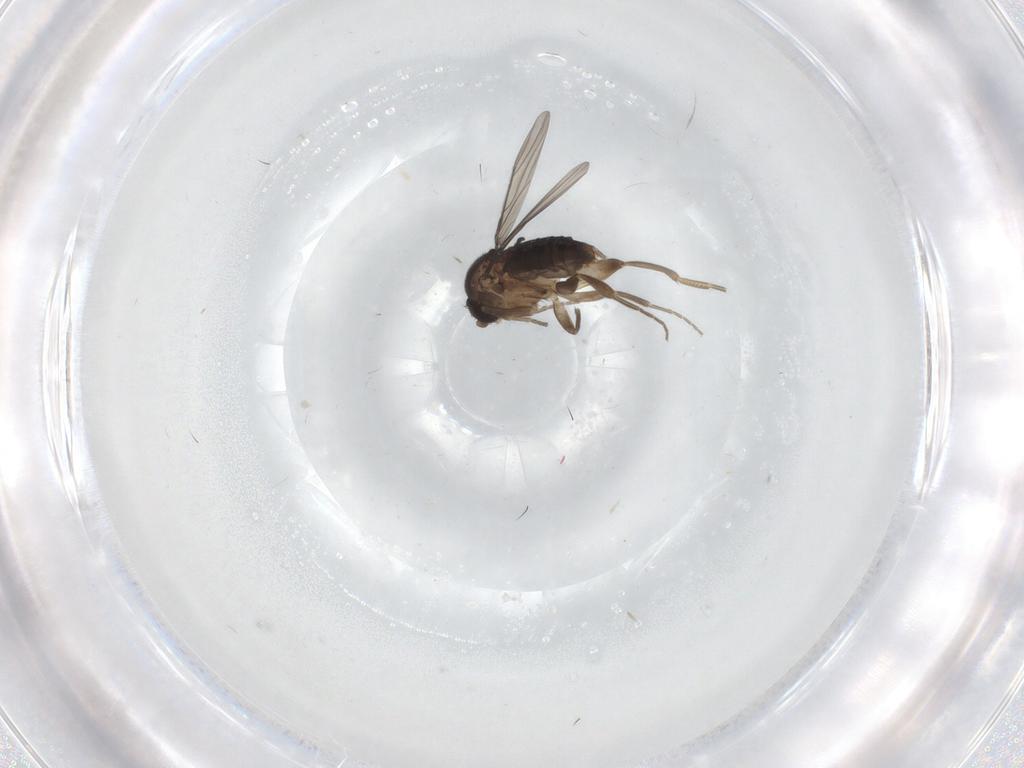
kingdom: Animalia
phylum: Arthropoda
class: Insecta
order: Diptera
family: Phoridae
